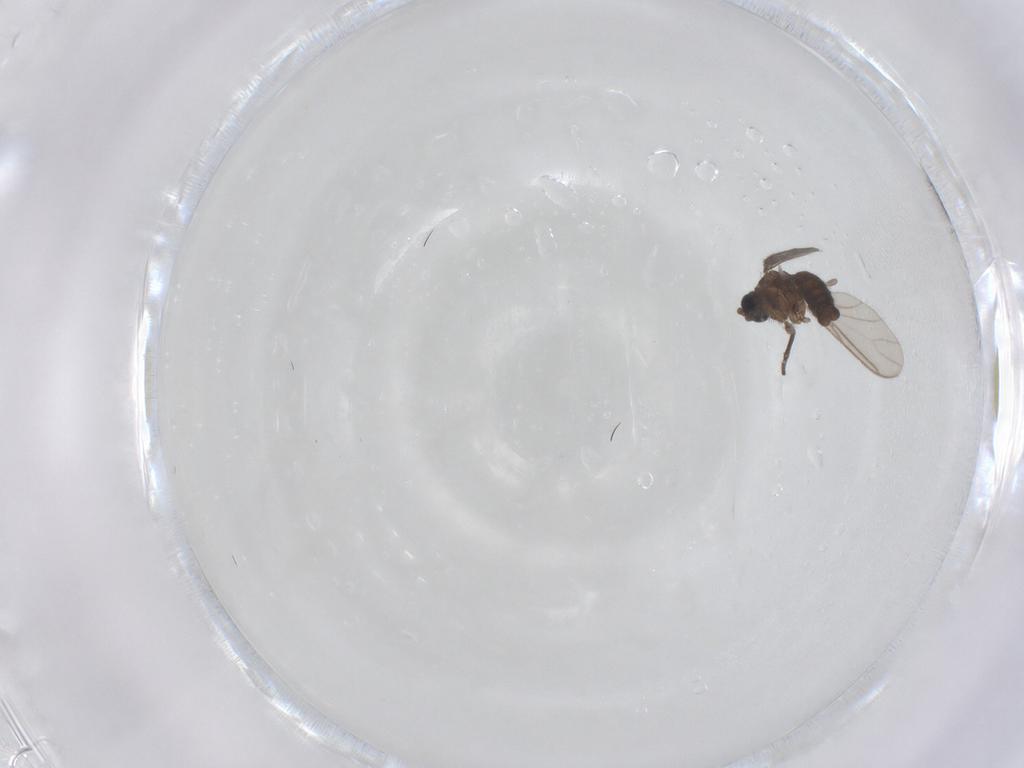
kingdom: Animalia
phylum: Arthropoda
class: Insecta
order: Diptera
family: Sciaridae
